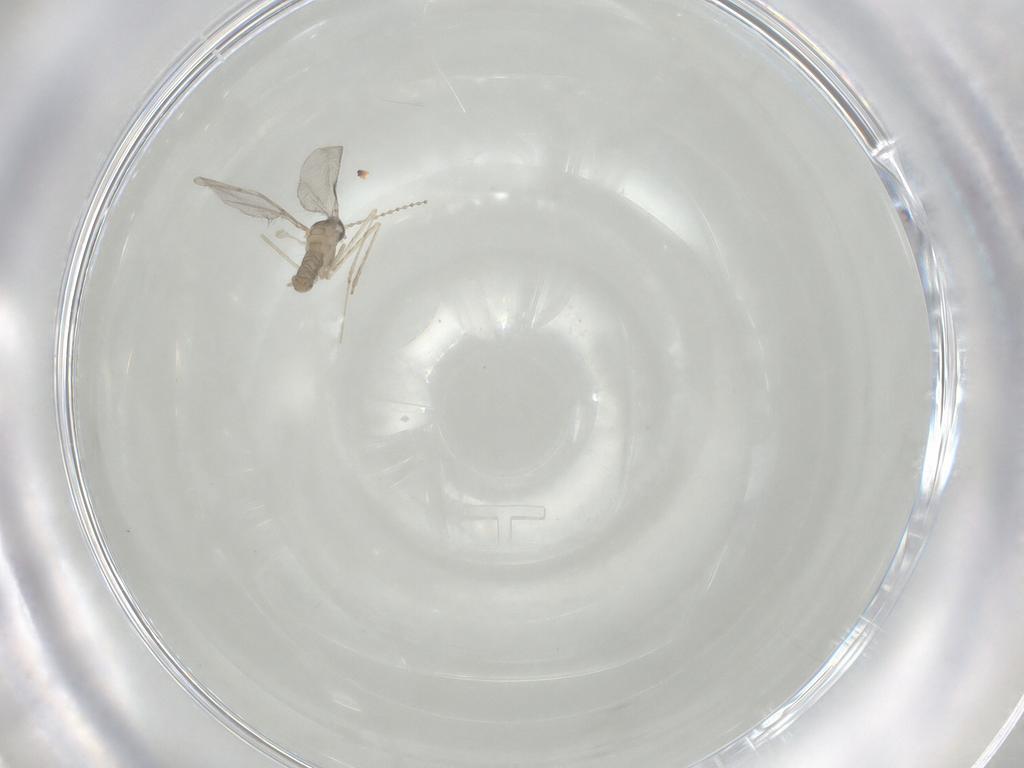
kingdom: Animalia
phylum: Arthropoda
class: Insecta
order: Diptera
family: Cecidomyiidae
